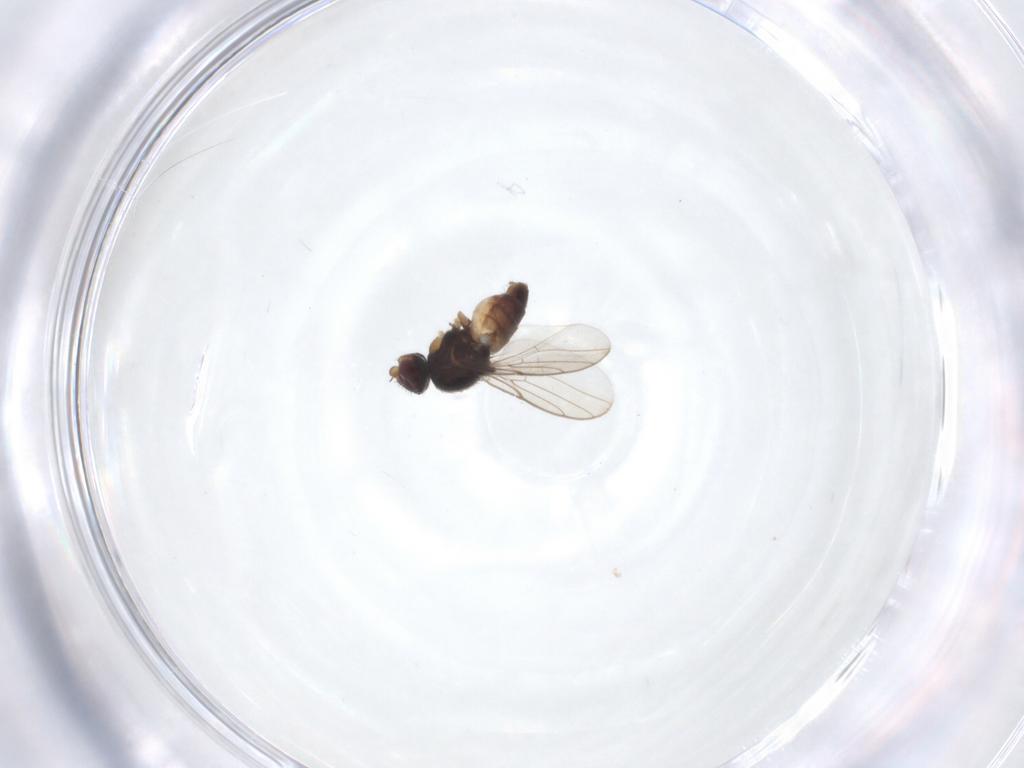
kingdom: Animalia
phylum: Arthropoda
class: Insecta
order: Diptera
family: Chloropidae
